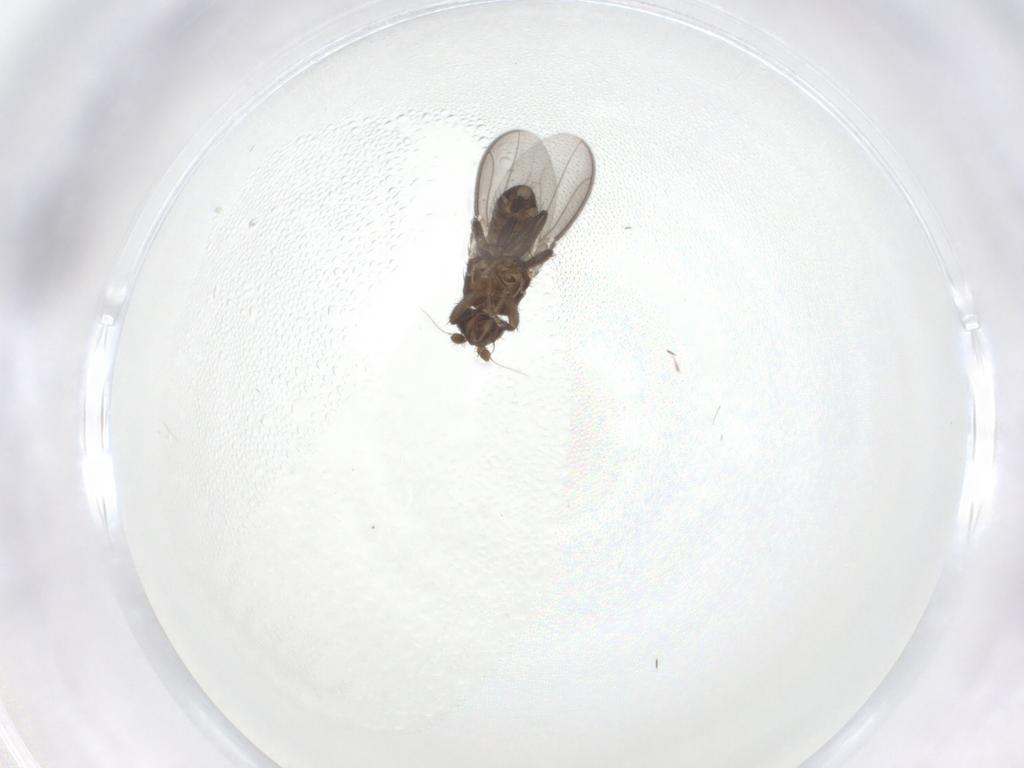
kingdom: Animalia
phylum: Arthropoda
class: Insecta
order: Diptera
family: Sphaeroceridae
